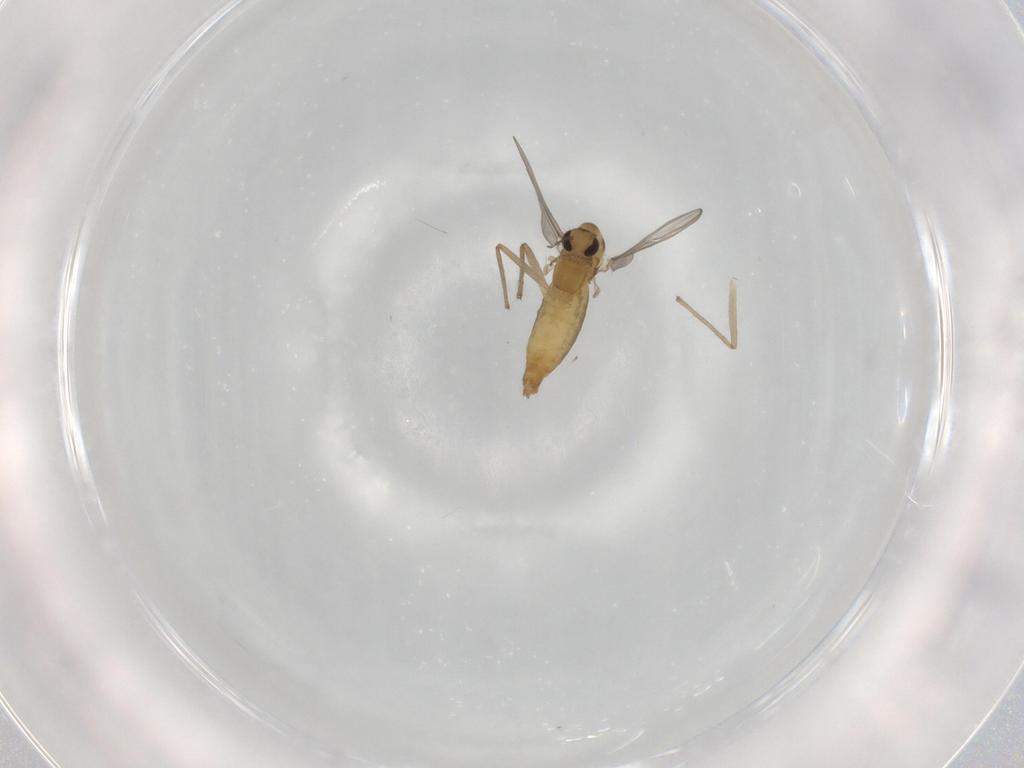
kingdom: Animalia
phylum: Arthropoda
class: Insecta
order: Diptera
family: Chironomidae
